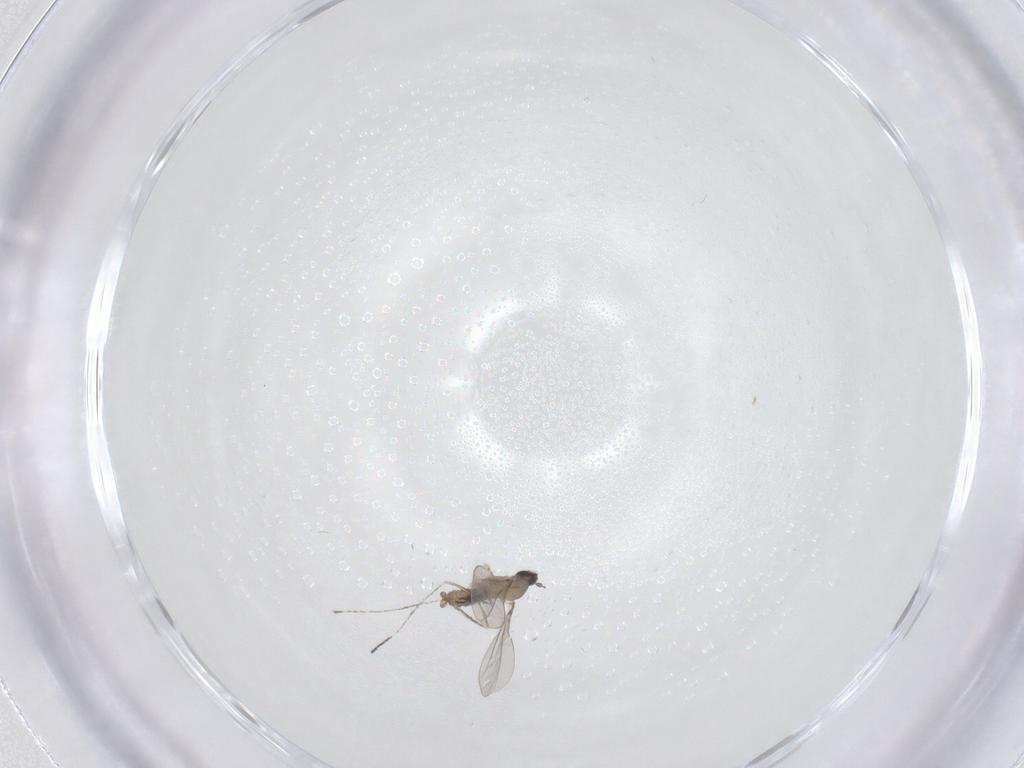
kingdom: Animalia
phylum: Arthropoda
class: Insecta
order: Diptera
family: Cecidomyiidae
